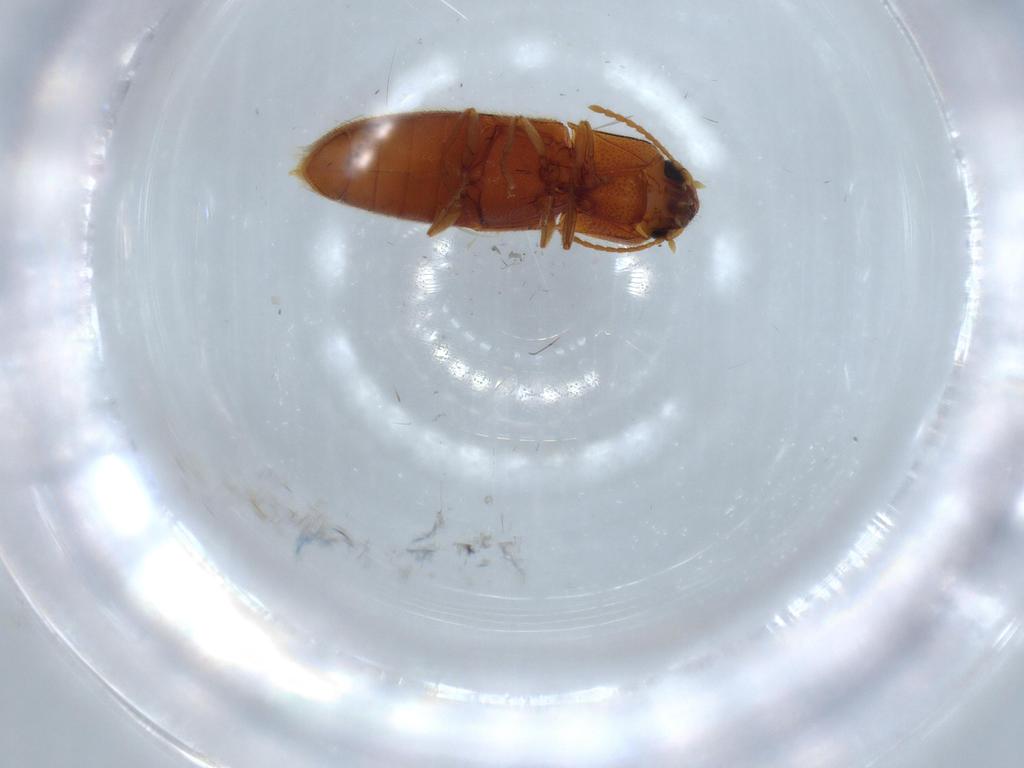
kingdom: Animalia
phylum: Arthropoda
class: Insecta
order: Coleoptera
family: Elateridae
